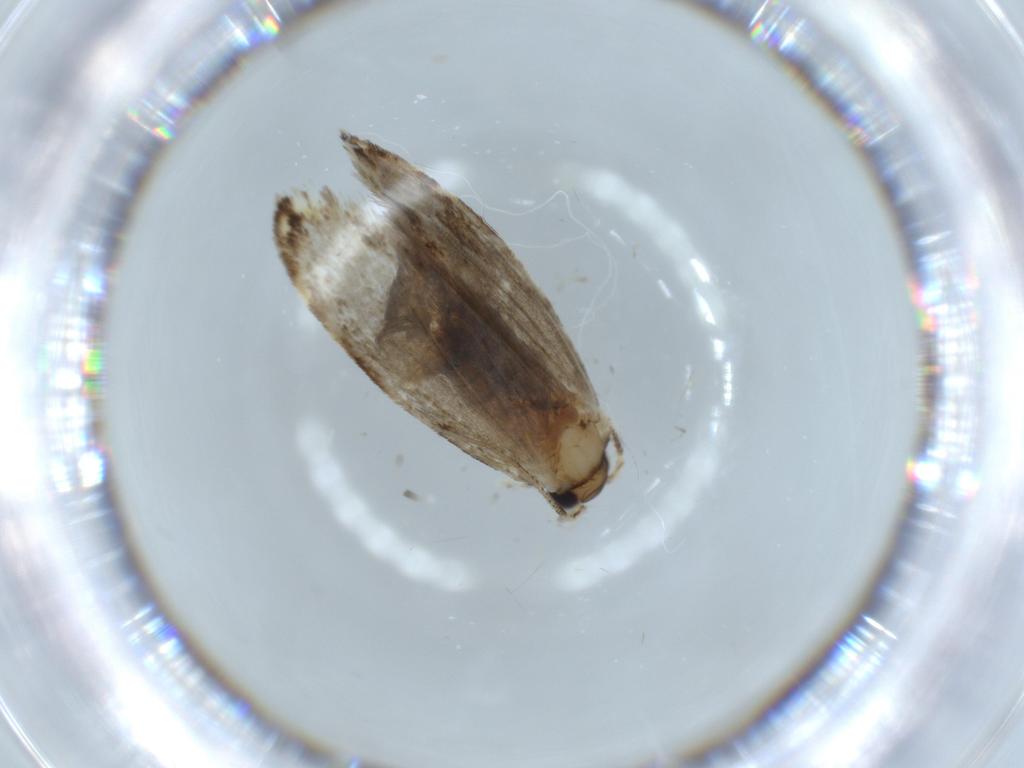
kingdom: Animalia
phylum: Arthropoda
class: Insecta
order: Lepidoptera
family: Tineidae
